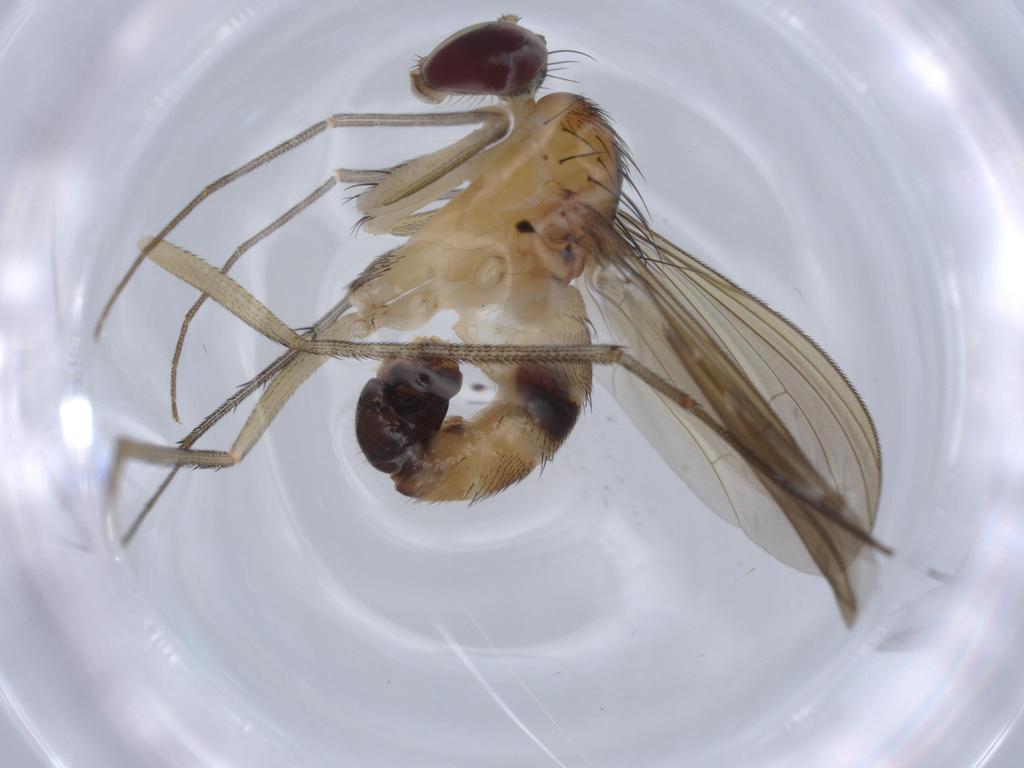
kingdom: Animalia
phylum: Arthropoda
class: Insecta
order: Diptera
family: Dolichopodidae
